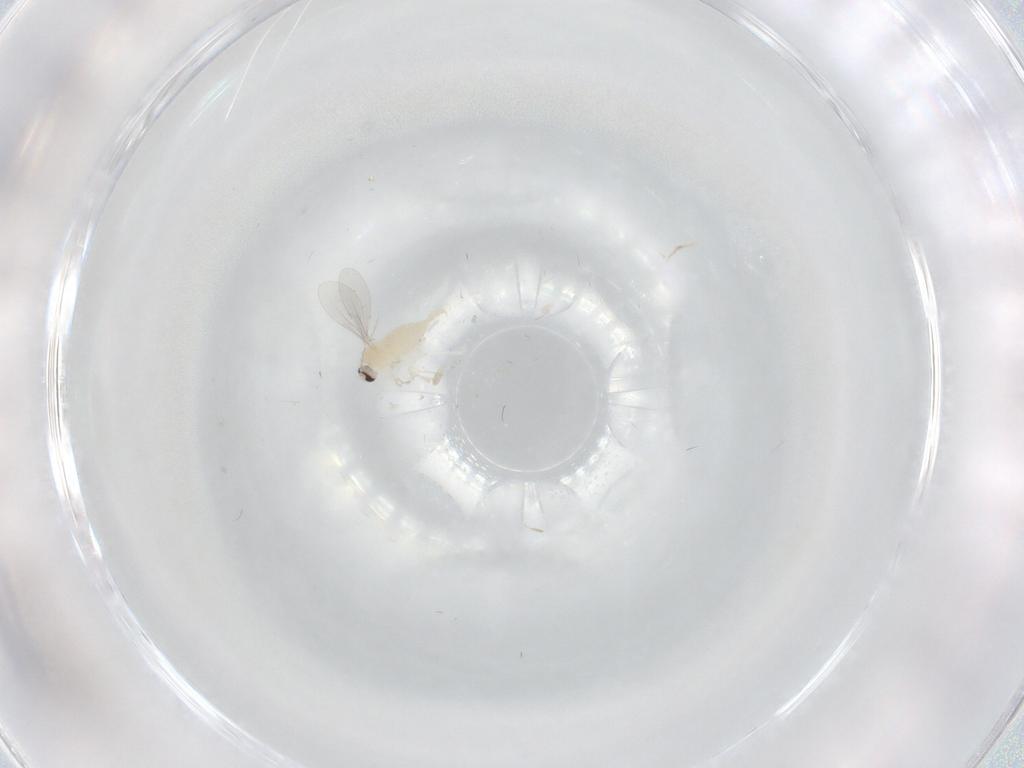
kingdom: Animalia
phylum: Arthropoda
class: Insecta
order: Diptera
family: Cecidomyiidae
